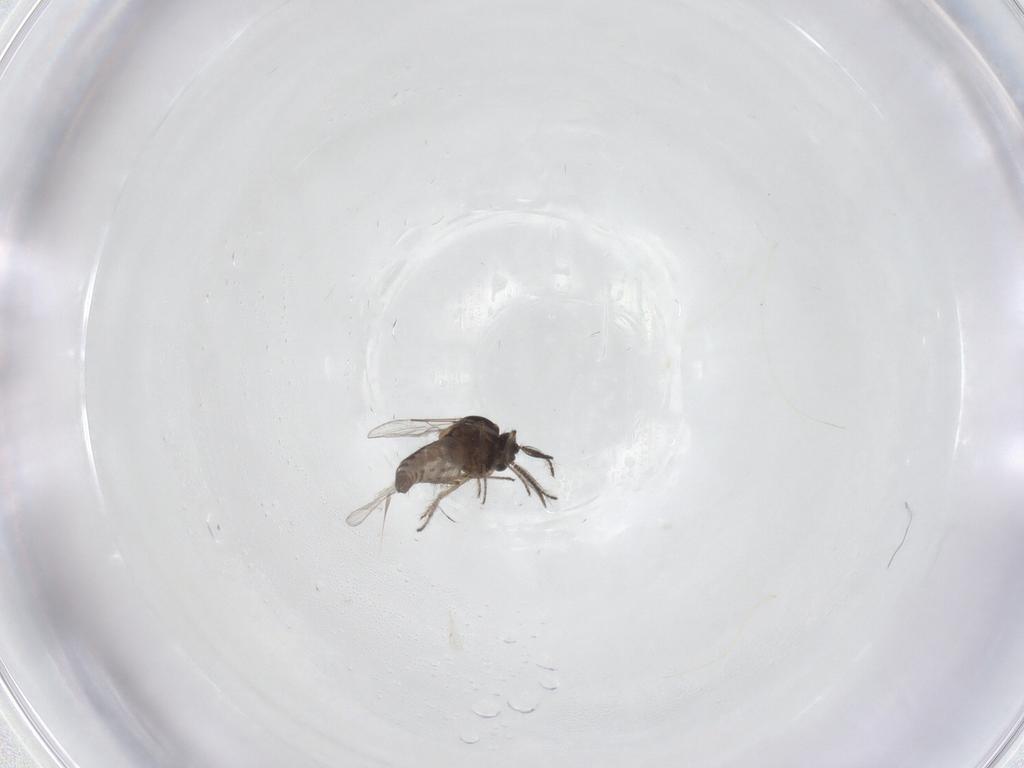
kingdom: Animalia
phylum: Arthropoda
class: Insecta
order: Diptera
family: Ceratopogonidae
